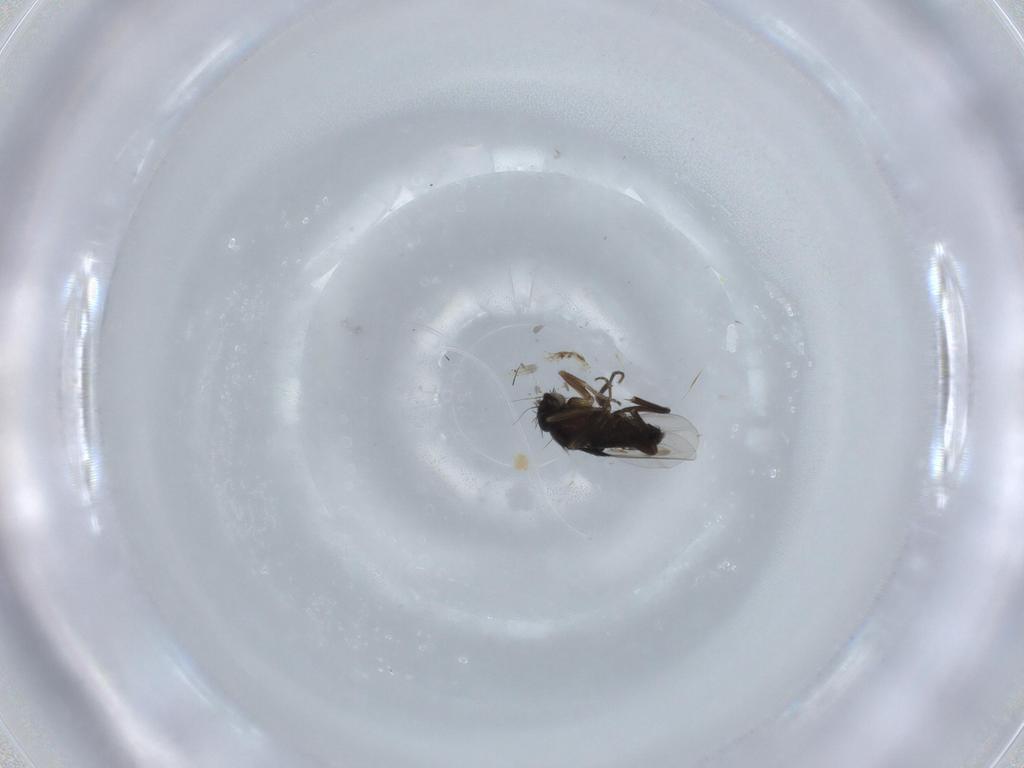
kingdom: Animalia
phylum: Arthropoda
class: Insecta
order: Diptera
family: Stratiomyidae
